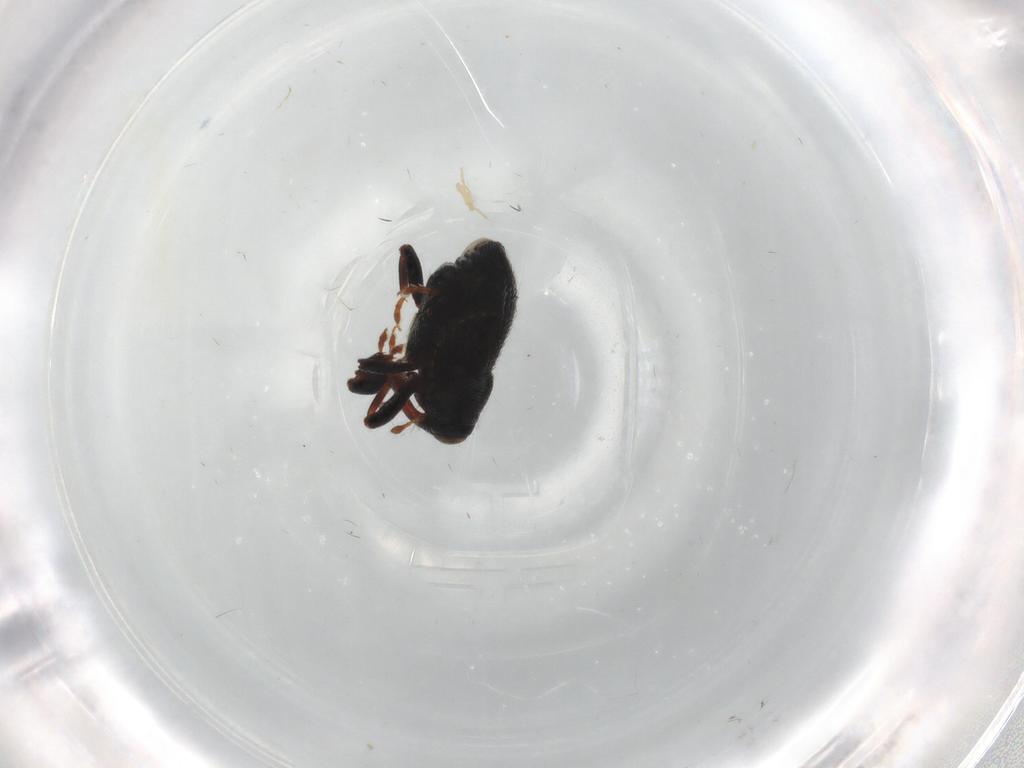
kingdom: Animalia
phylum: Arthropoda
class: Insecta
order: Coleoptera
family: Curculionidae
